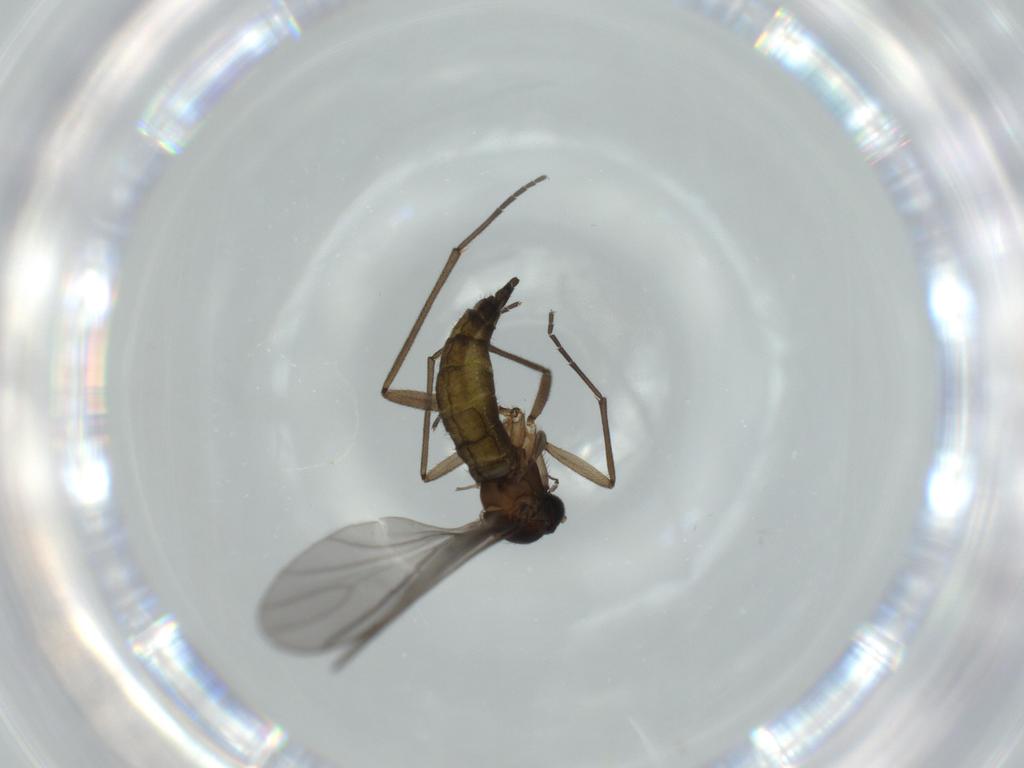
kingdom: Animalia
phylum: Arthropoda
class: Insecta
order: Diptera
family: Sciaridae
